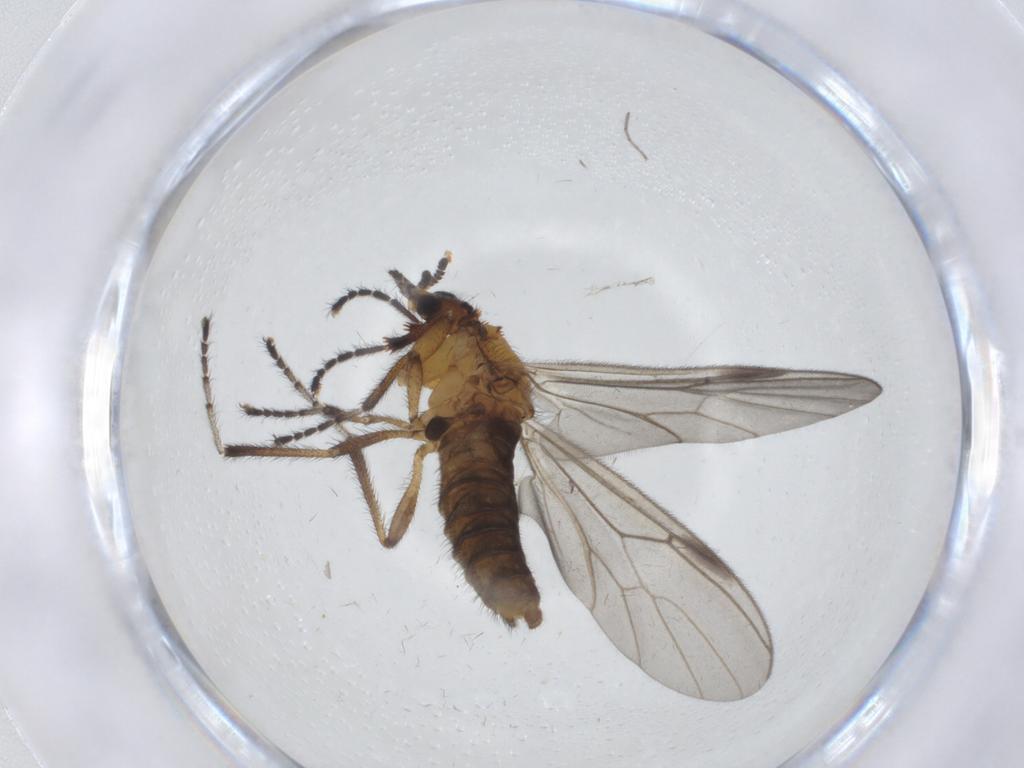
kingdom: Animalia
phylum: Arthropoda
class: Insecta
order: Diptera
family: Bibionidae
